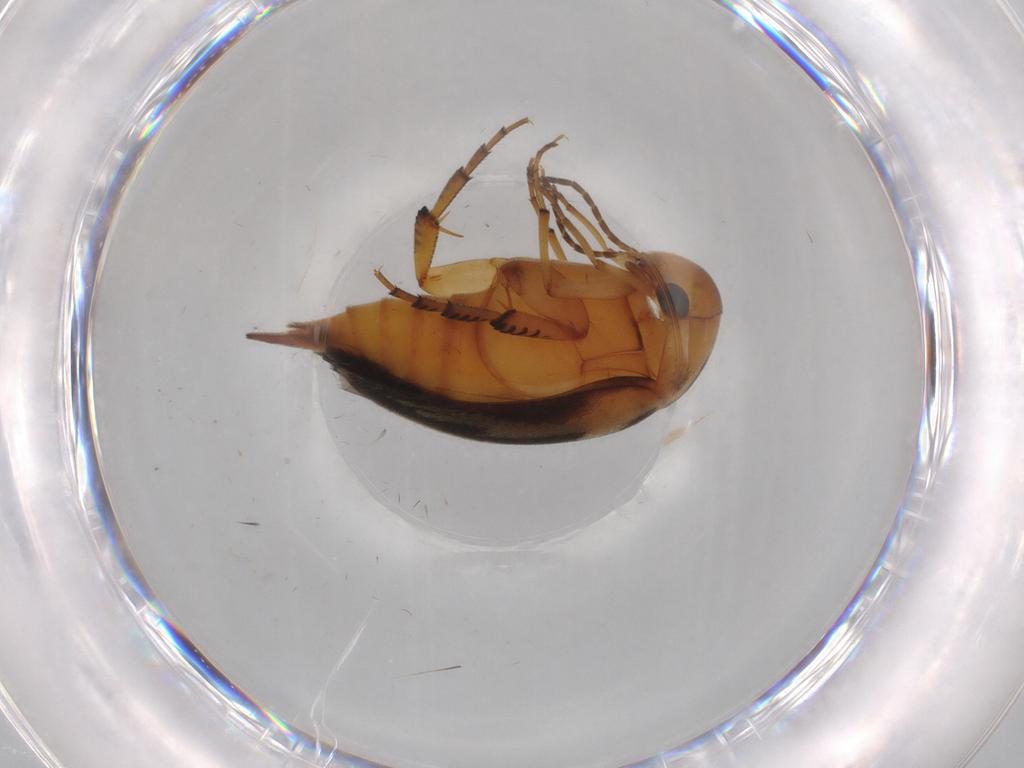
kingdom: Animalia
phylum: Arthropoda
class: Insecta
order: Coleoptera
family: Mordellidae
